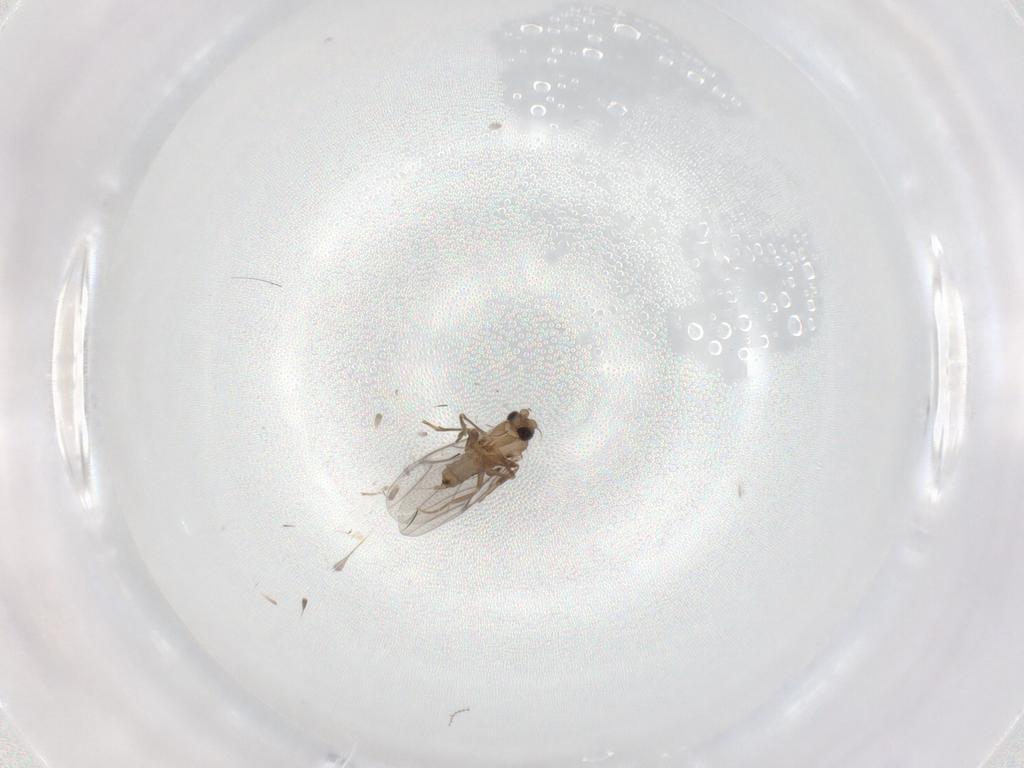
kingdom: Animalia
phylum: Arthropoda
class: Insecta
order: Diptera
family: Cecidomyiidae
